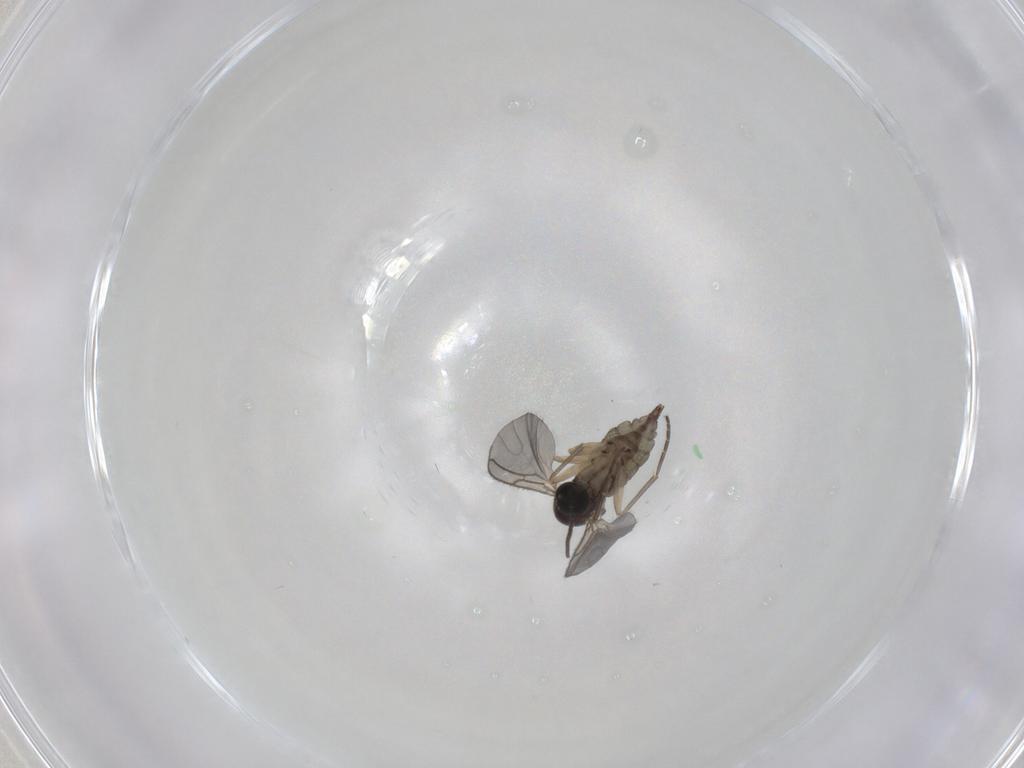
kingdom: Animalia
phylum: Arthropoda
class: Insecta
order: Diptera
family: Sciaridae
